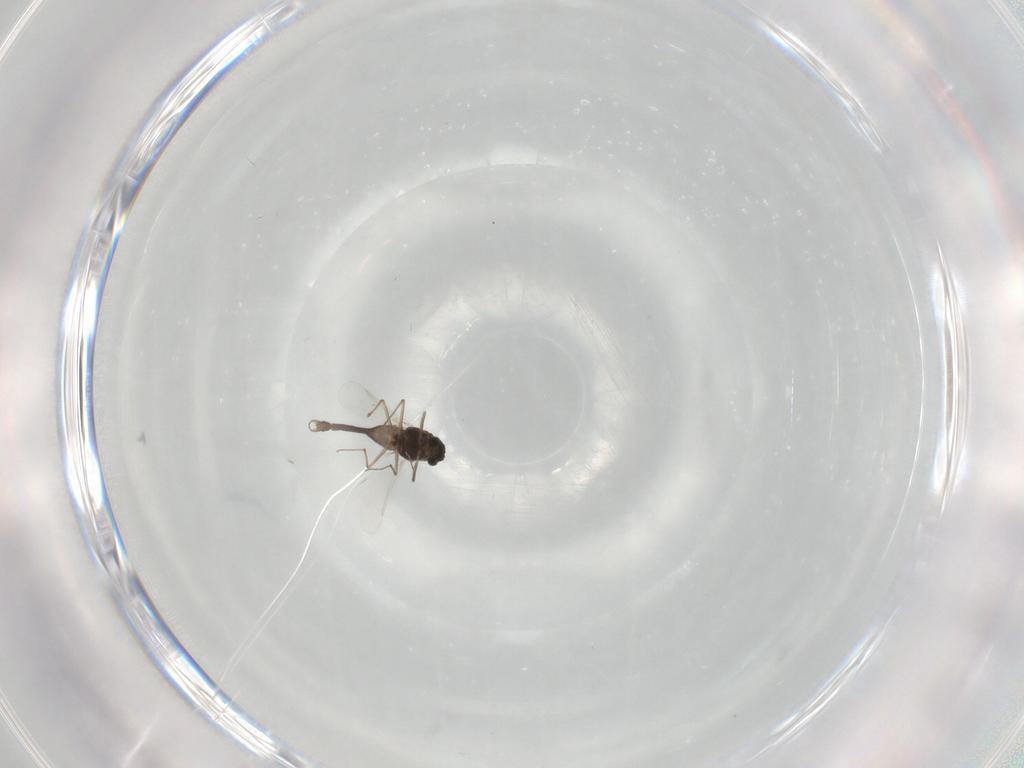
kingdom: Animalia
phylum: Arthropoda
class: Insecta
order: Diptera
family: Chironomidae
